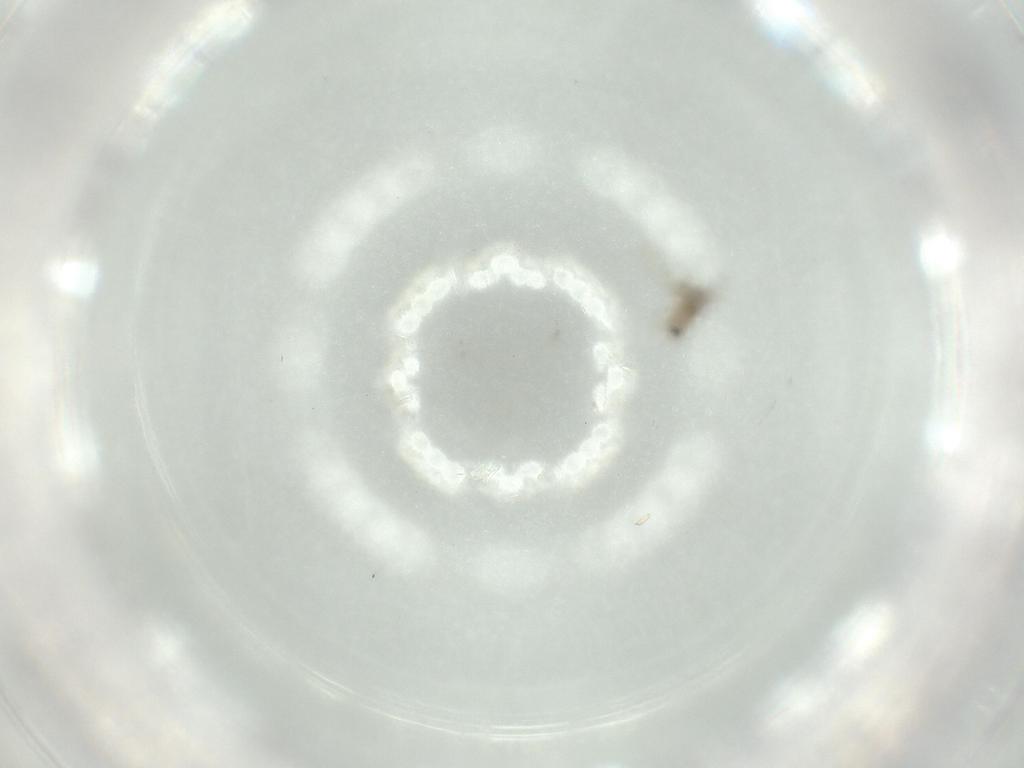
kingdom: Animalia
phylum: Arthropoda
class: Insecta
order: Diptera
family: Phoridae
